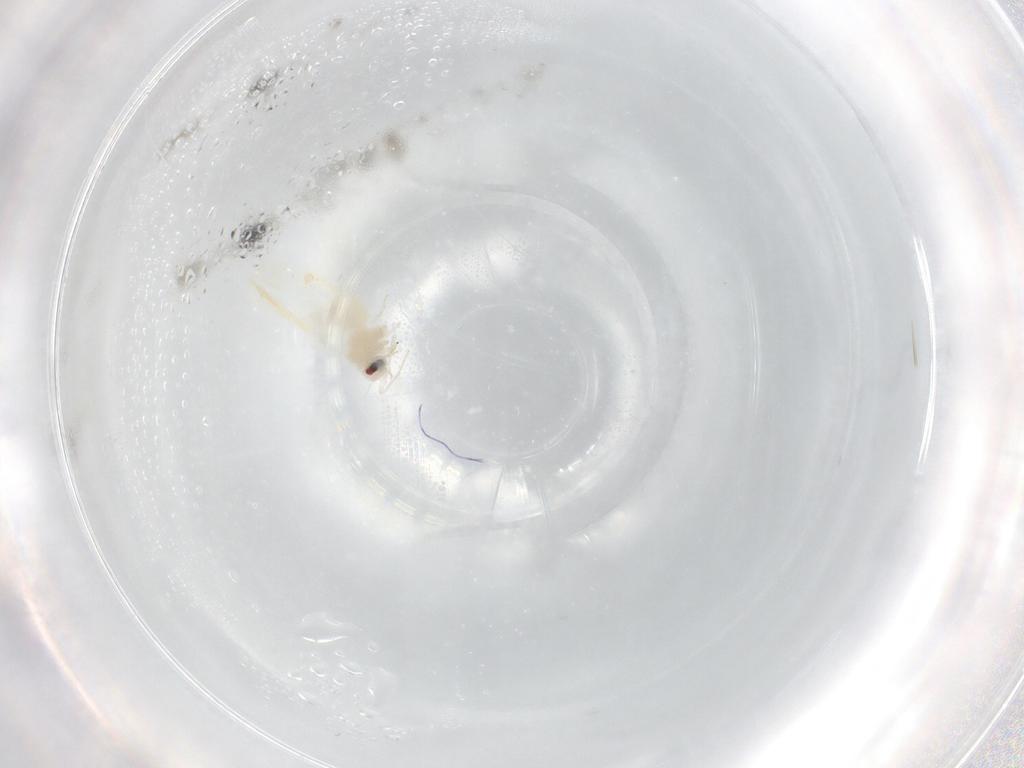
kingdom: Animalia
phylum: Arthropoda
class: Insecta
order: Hemiptera
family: Aleyrodidae
